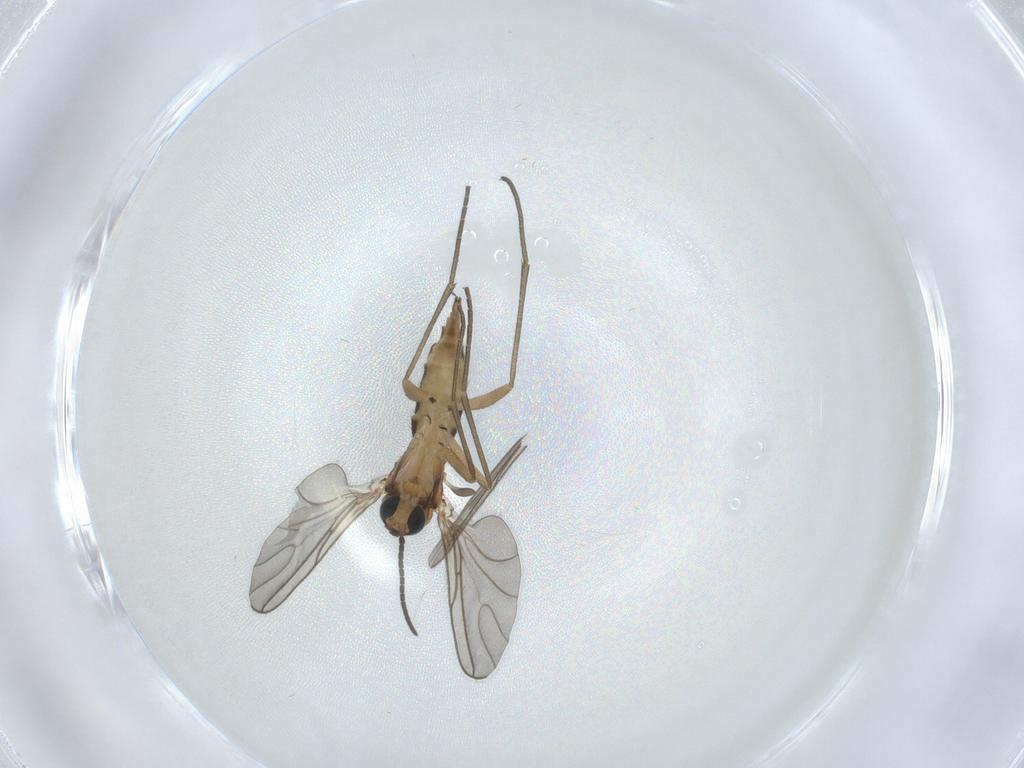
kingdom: Animalia
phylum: Arthropoda
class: Insecta
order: Diptera
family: Sciaridae
